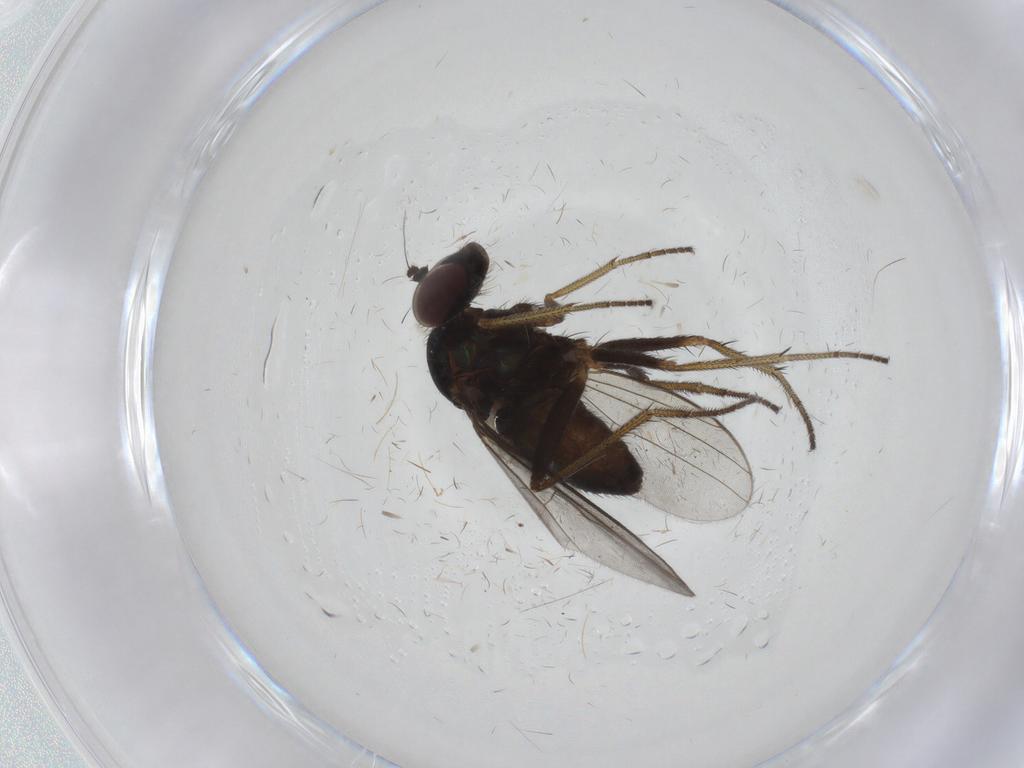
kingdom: Animalia
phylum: Arthropoda
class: Insecta
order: Diptera
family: Dolichopodidae
